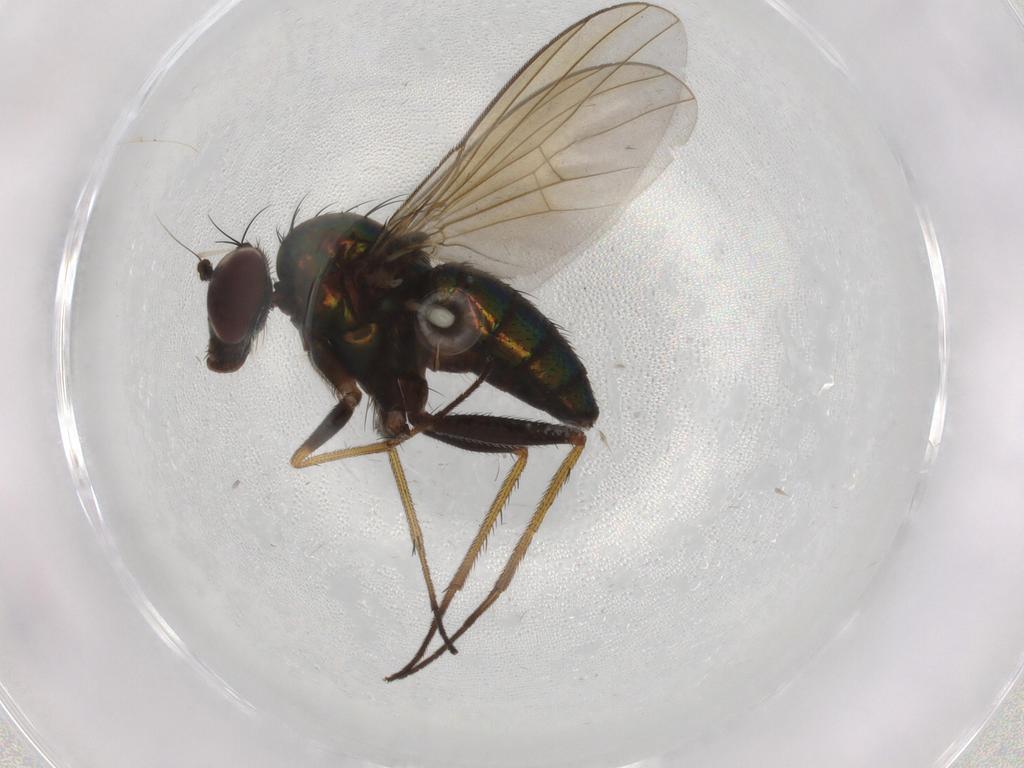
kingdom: Animalia
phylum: Arthropoda
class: Insecta
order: Diptera
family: Dolichopodidae
